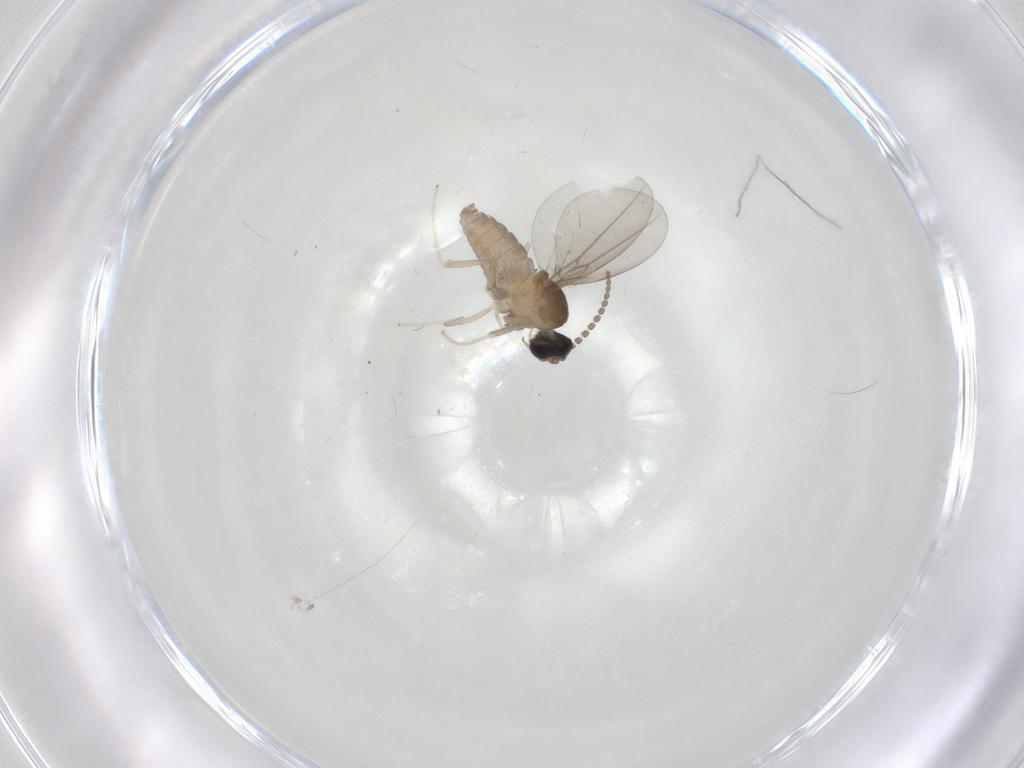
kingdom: Animalia
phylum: Arthropoda
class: Insecta
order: Diptera
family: Cecidomyiidae
